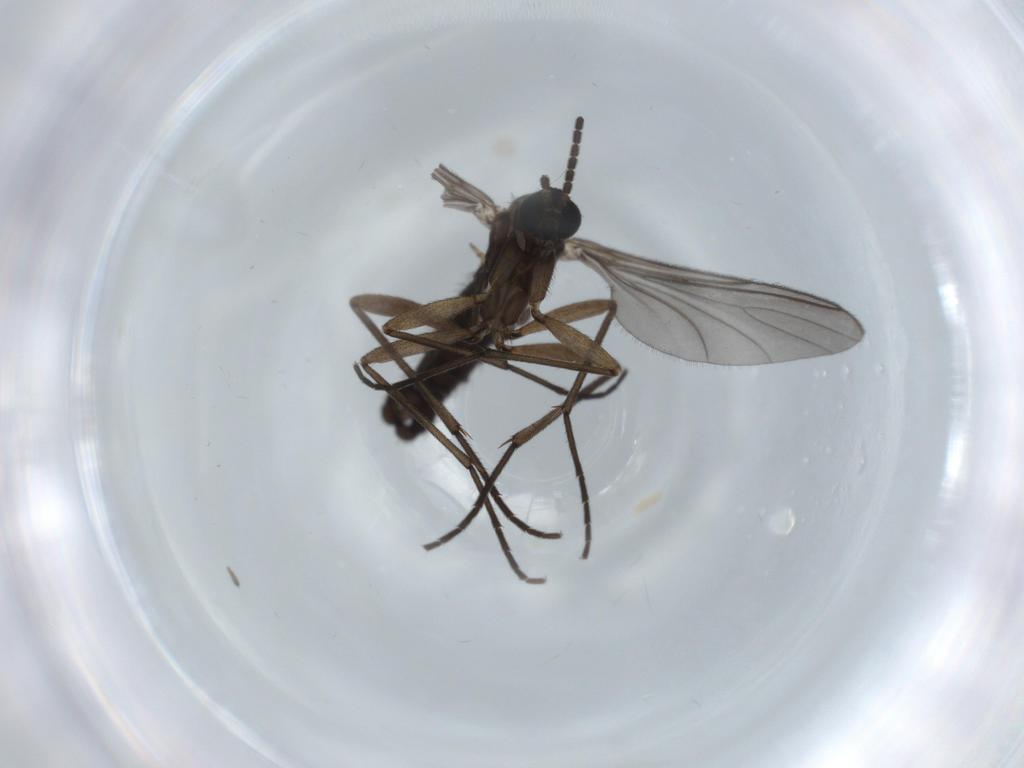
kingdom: Animalia
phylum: Arthropoda
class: Insecta
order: Diptera
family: Sciaridae
